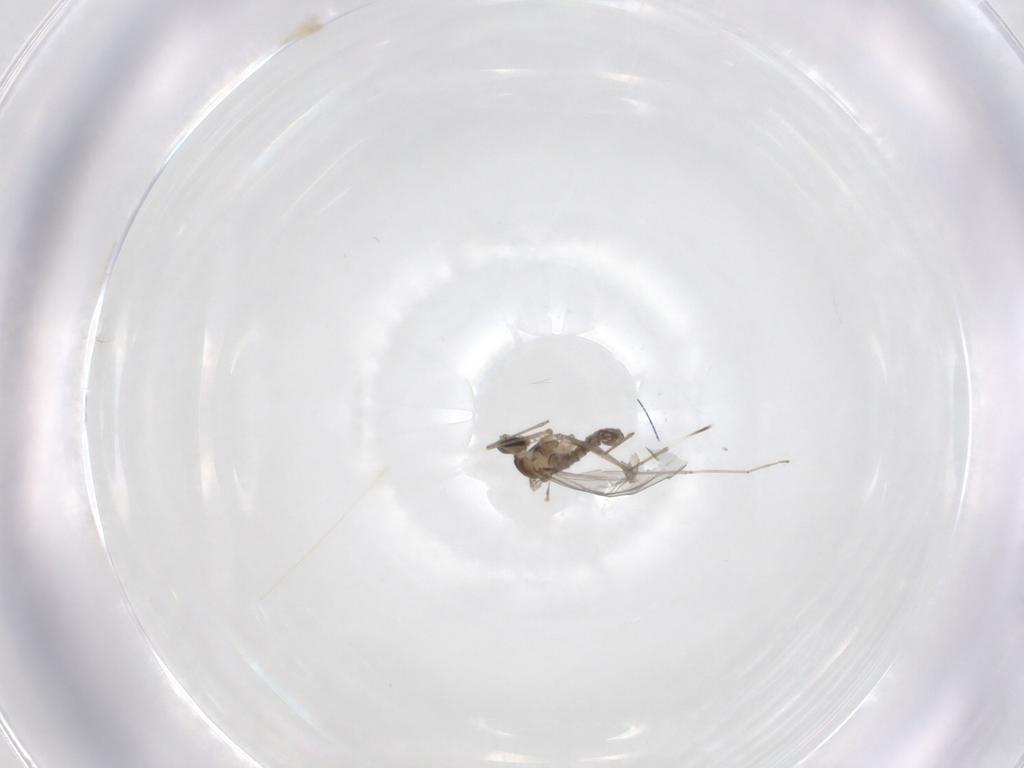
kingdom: Animalia
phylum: Arthropoda
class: Insecta
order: Diptera
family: Cecidomyiidae
